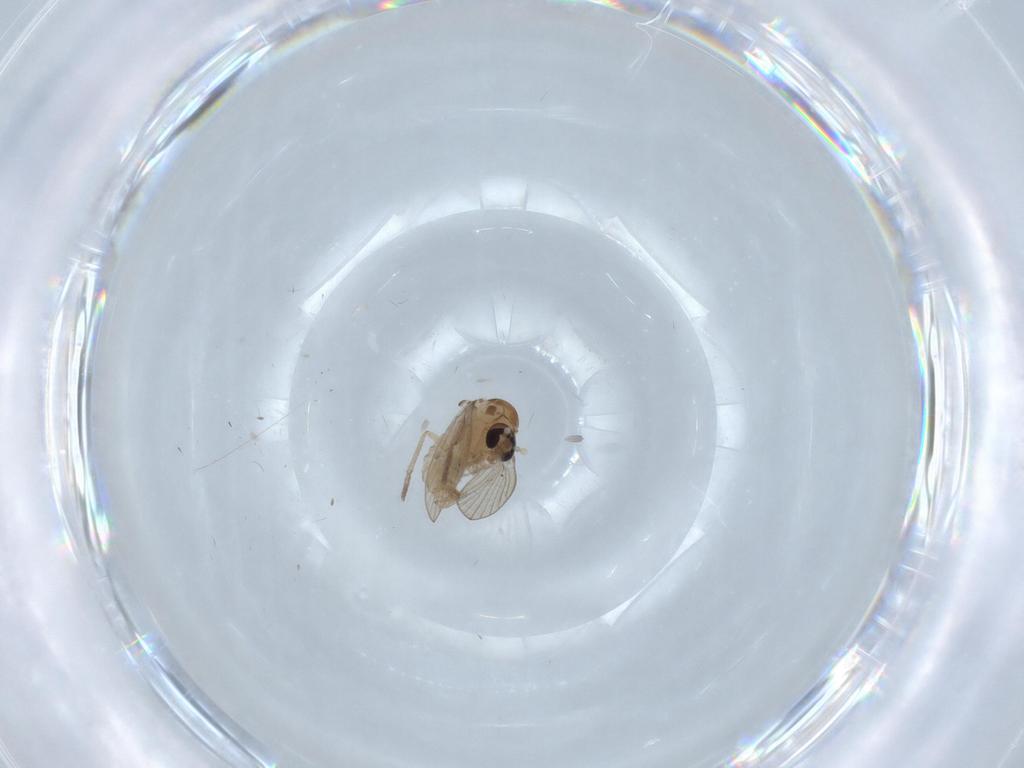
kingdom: Animalia
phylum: Arthropoda
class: Insecta
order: Diptera
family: Psychodidae
